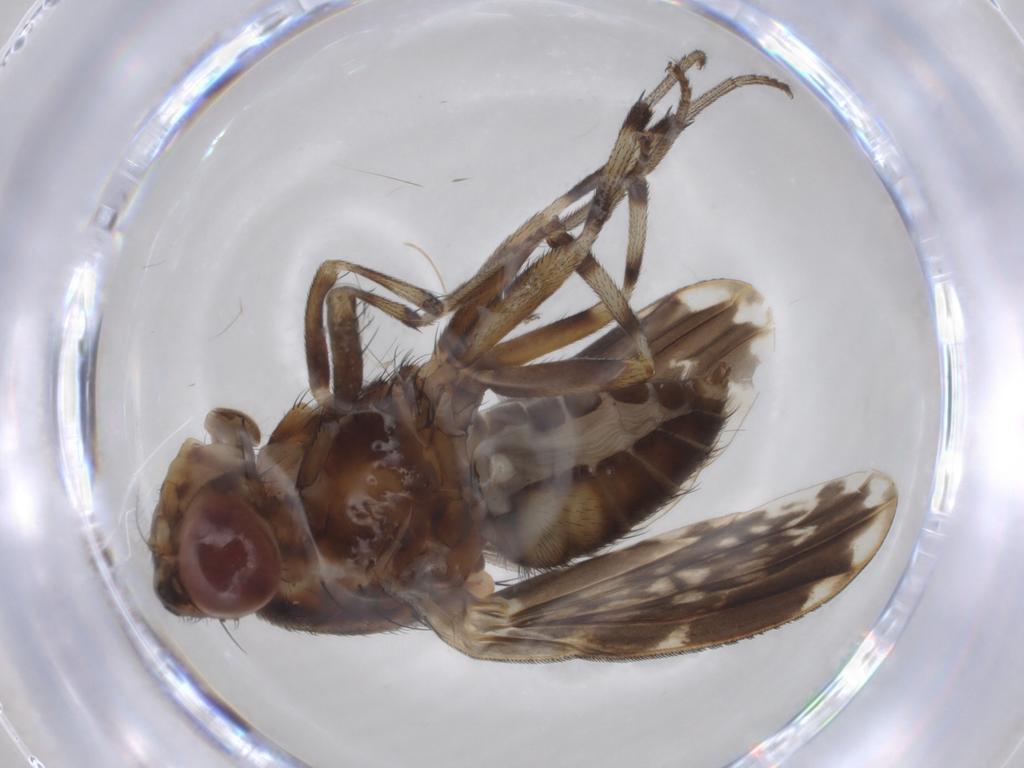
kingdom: Animalia
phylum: Arthropoda
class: Insecta
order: Diptera
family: Psychodidae
